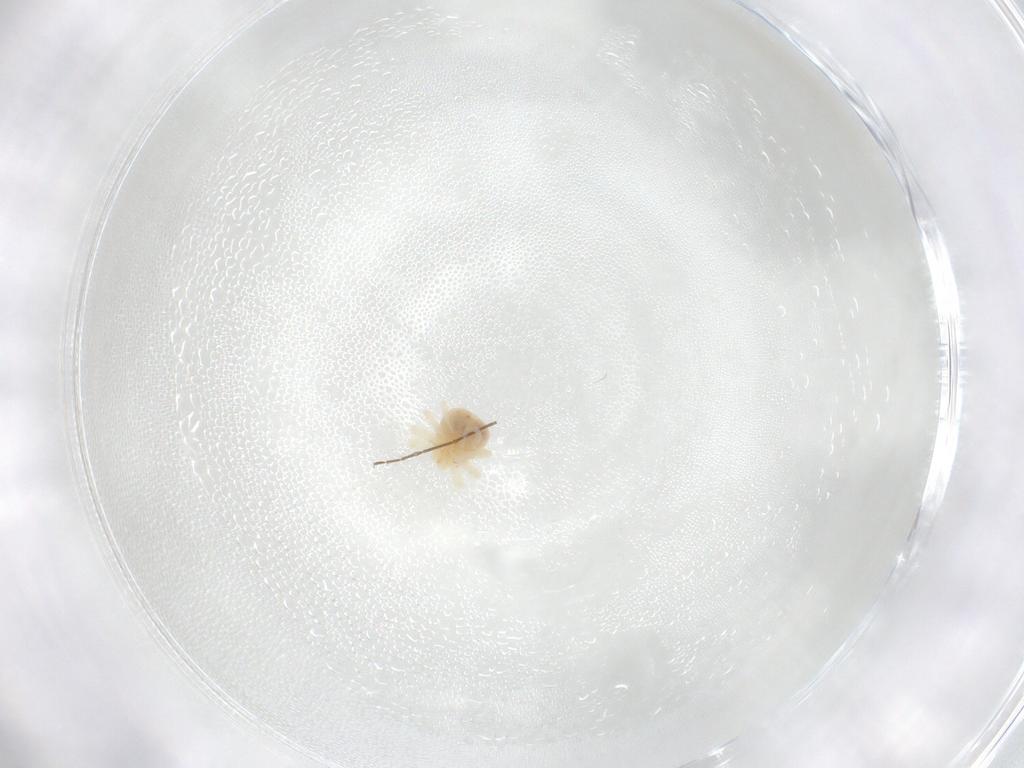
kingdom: Animalia
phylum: Arthropoda
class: Arachnida
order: Trombidiformes
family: Anystidae
